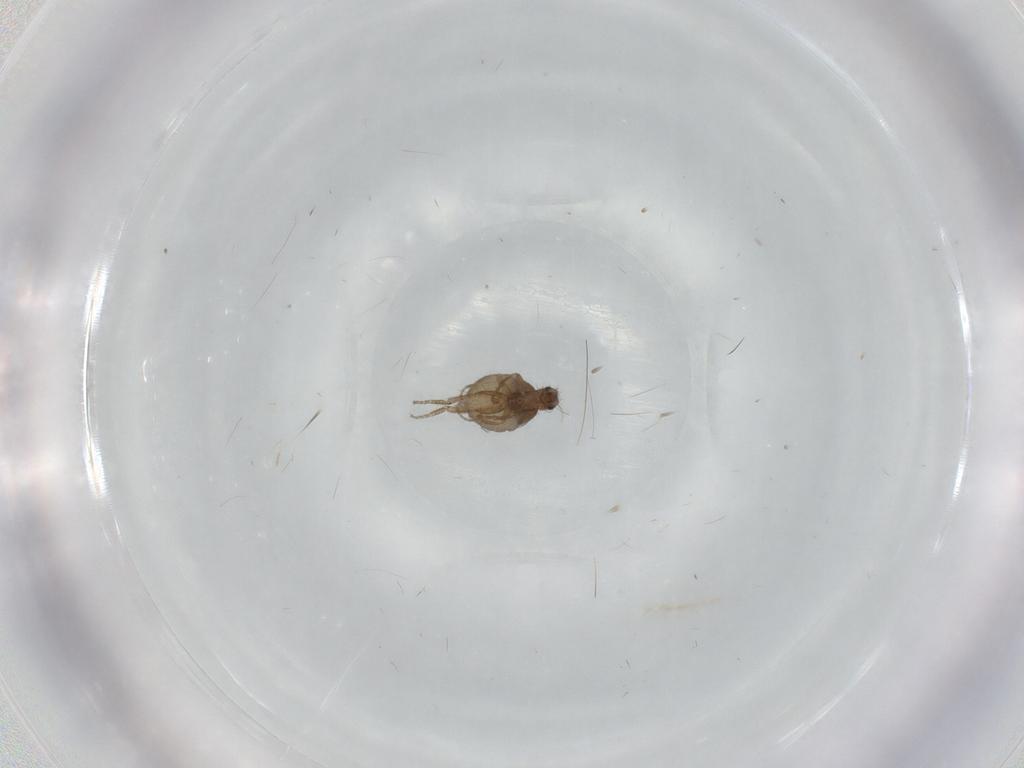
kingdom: Animalia
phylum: Arthropoda
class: Insecta
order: Diptera
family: Phoridae
